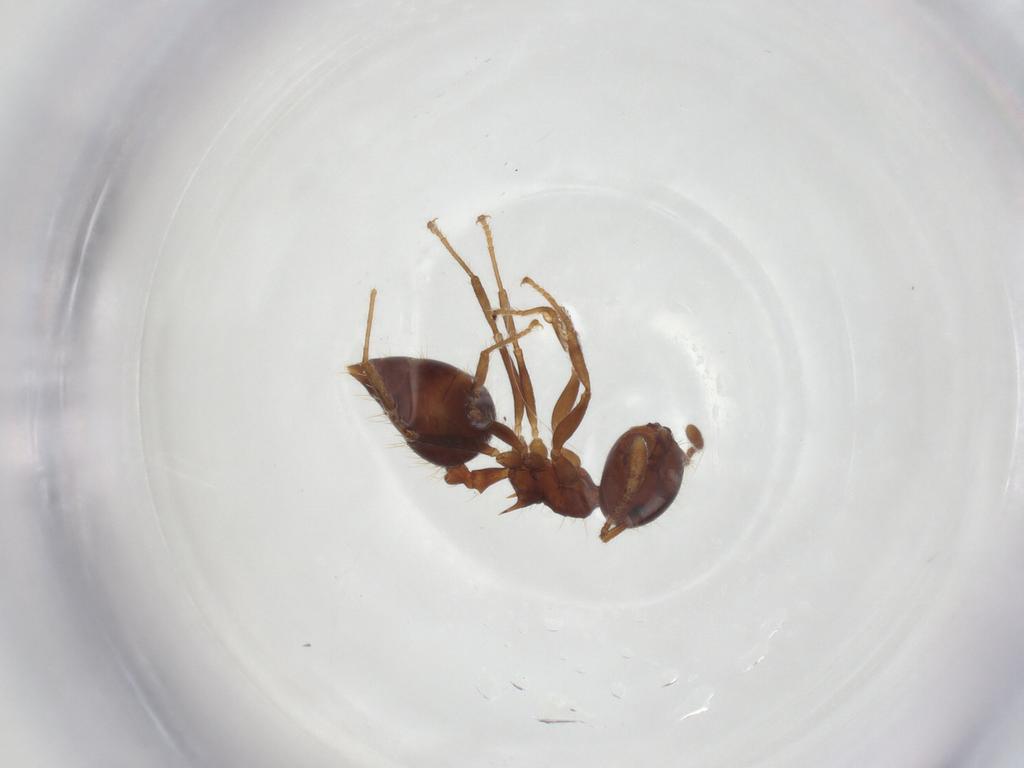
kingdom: Animalia
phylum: Arthropoda
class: Insecta
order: Hymenoptera
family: Formicidae
